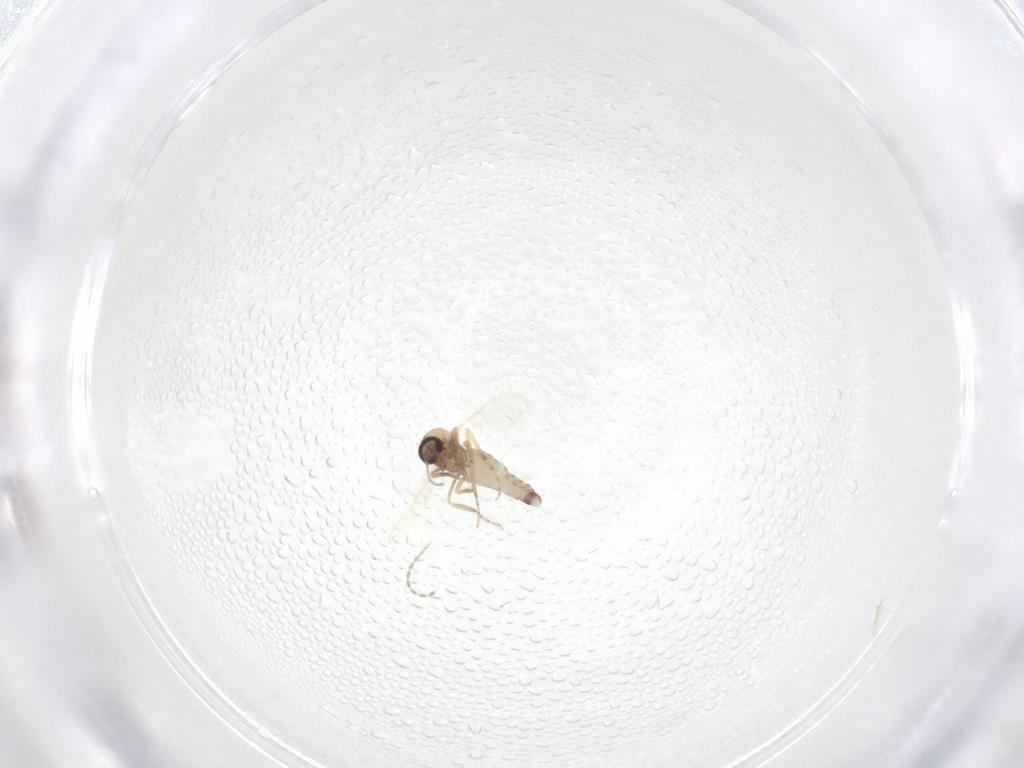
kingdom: Animalia
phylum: Arthropoda
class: Insecta
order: Diptera
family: Cecidomyiidae
